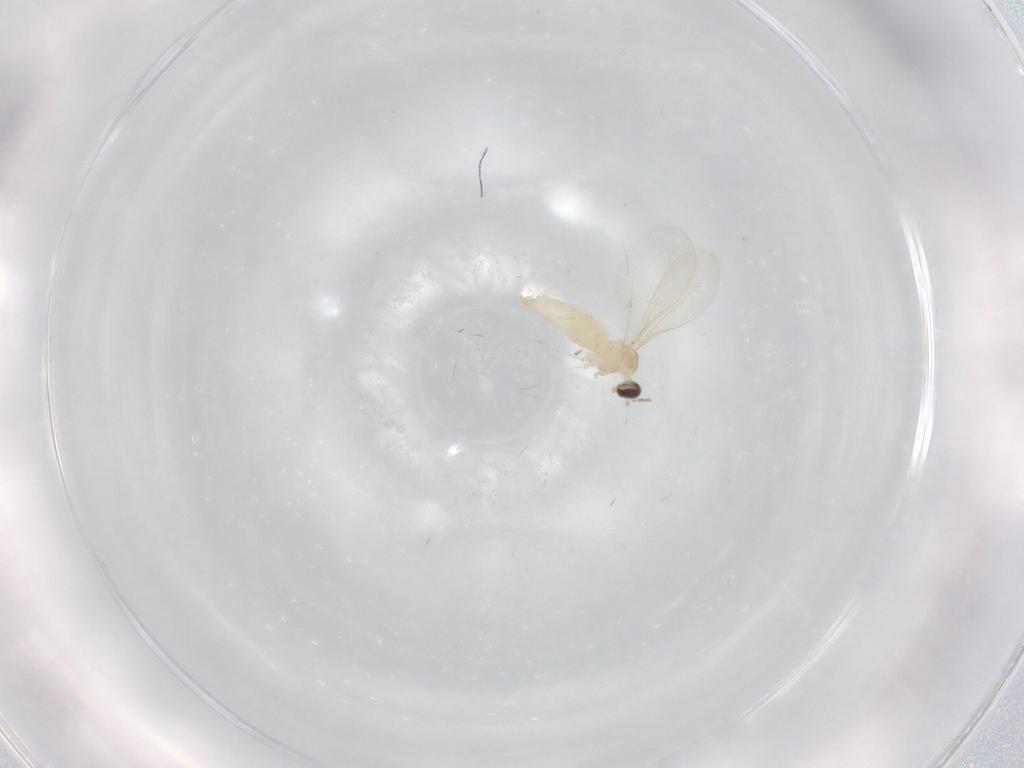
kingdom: Animalia
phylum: Arthropoda
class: Insecta
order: Diptera
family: Cecidomyiidae
